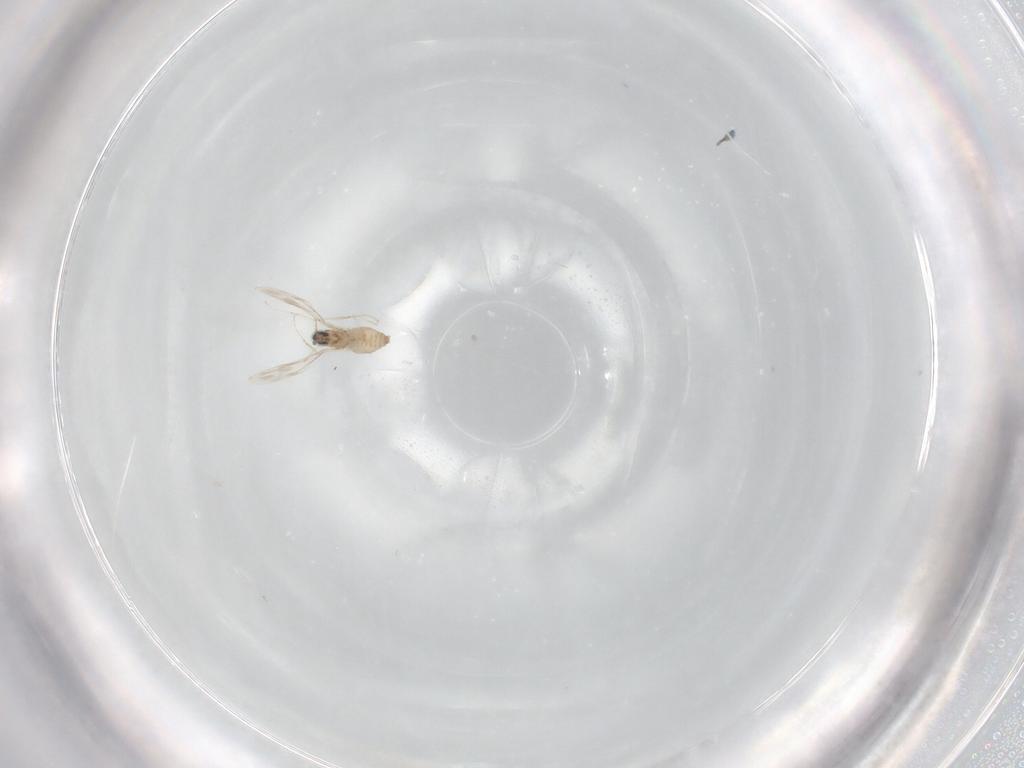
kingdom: Animalia
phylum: Arthropoda
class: Insecta
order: Diptera
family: Cecidomyiidae
